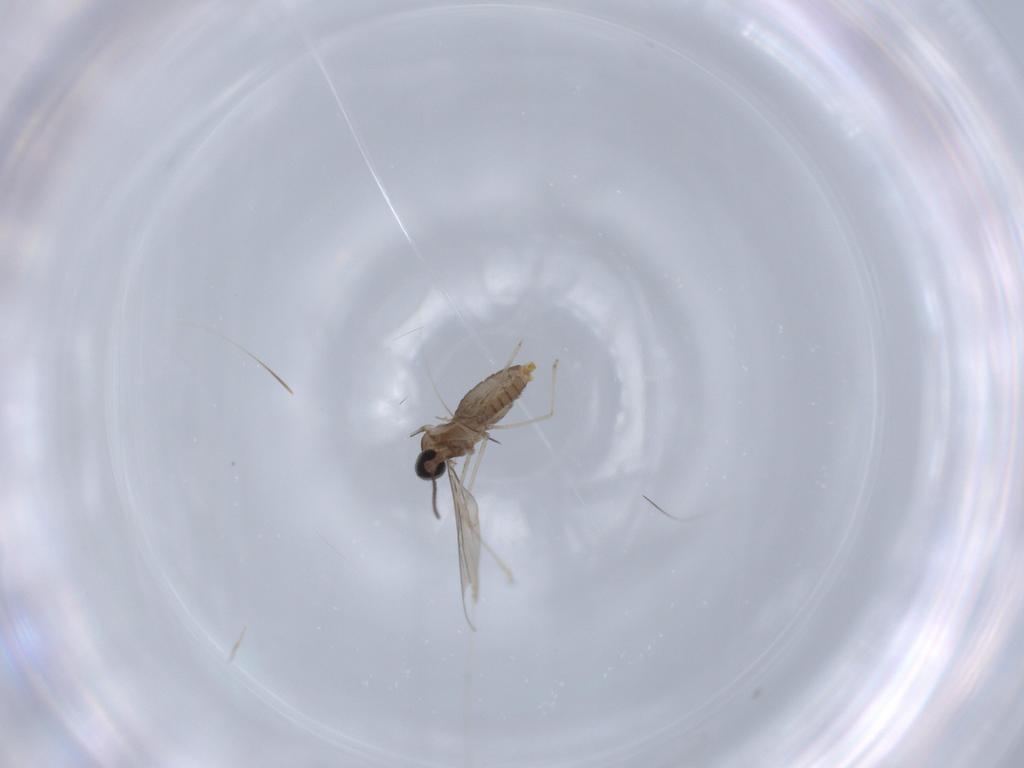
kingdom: Animalia
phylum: Arthropoda
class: Insecta
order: Diptera
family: Cecidomyiidae
